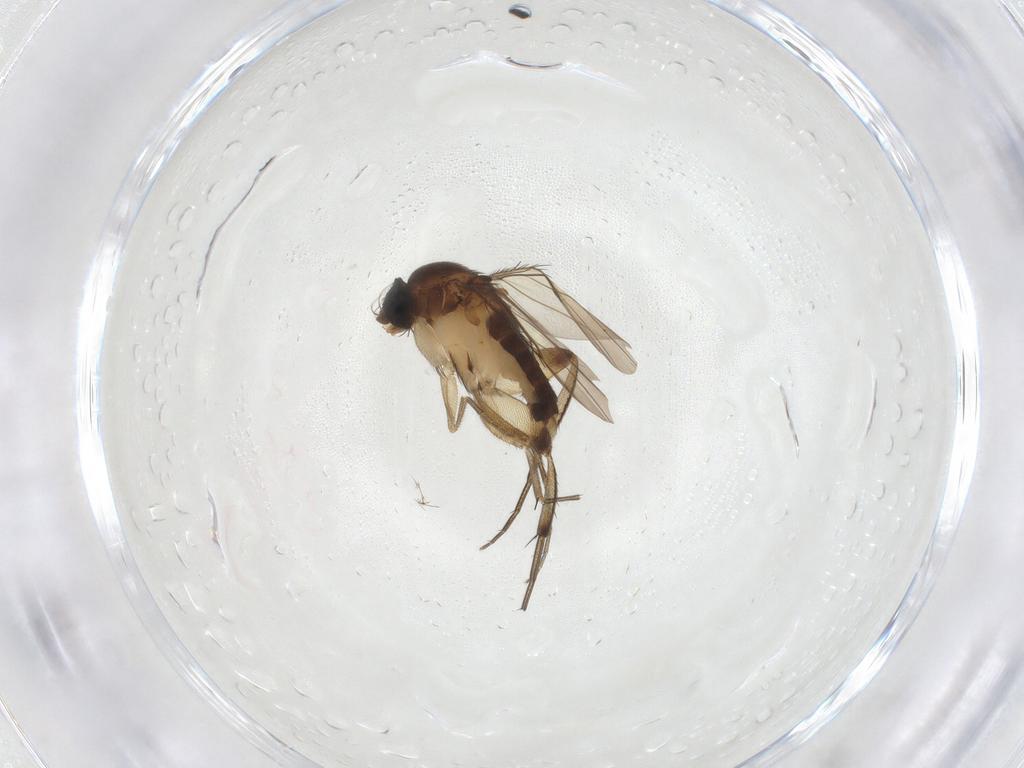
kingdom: Animalia
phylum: Arthropoda
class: Insecta
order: Diptera
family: Phoridae
